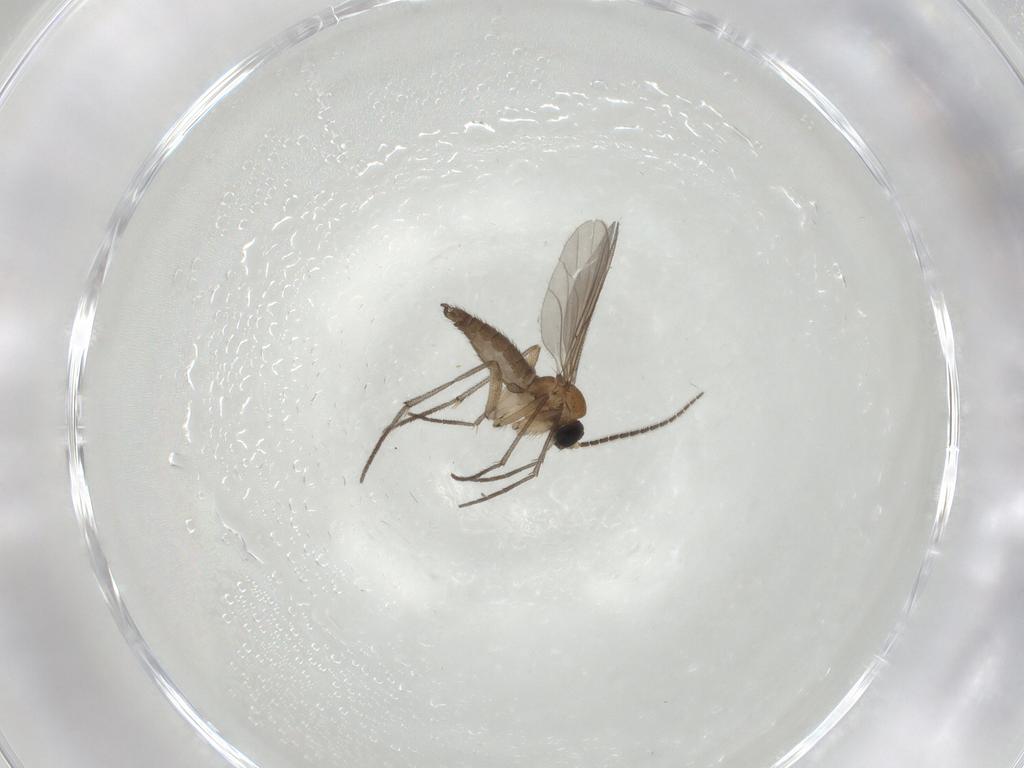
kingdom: Animalia
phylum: Arthropoda
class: Insecta
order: Diptera
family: Sciaridae
